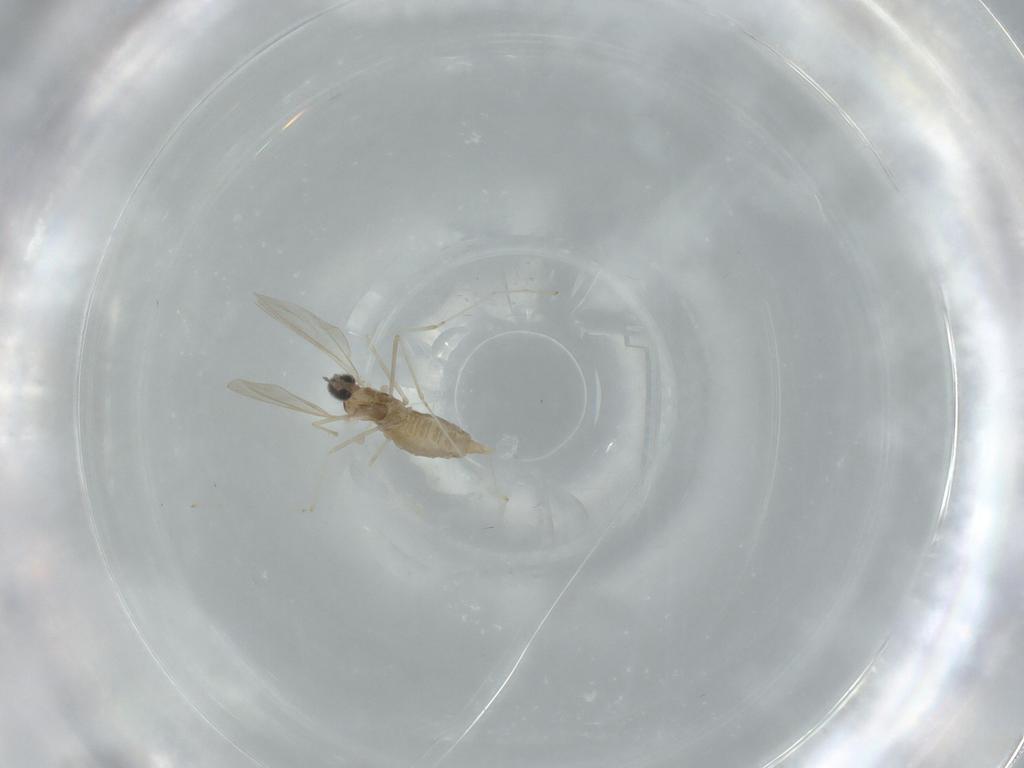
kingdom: Animalia
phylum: Arthropoda
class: Insecta
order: Diptera
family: Cecidomyiidae
